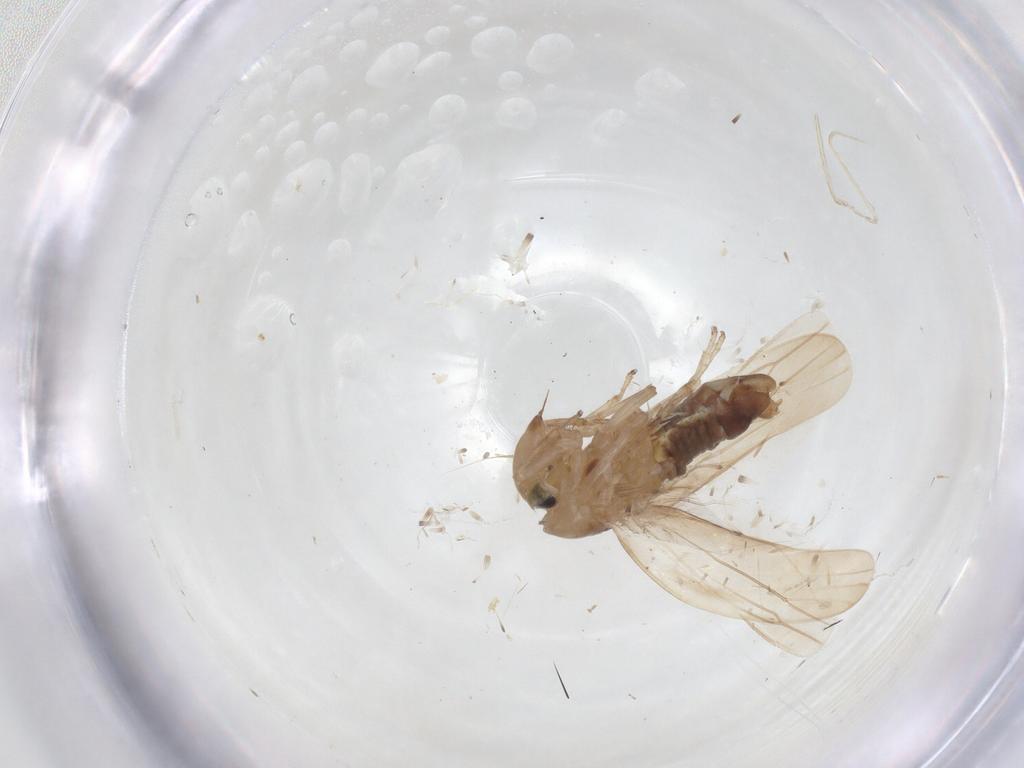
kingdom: Animalia
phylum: Arthropoda
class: Insecta
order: Hemiptera
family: Cicadellidae
